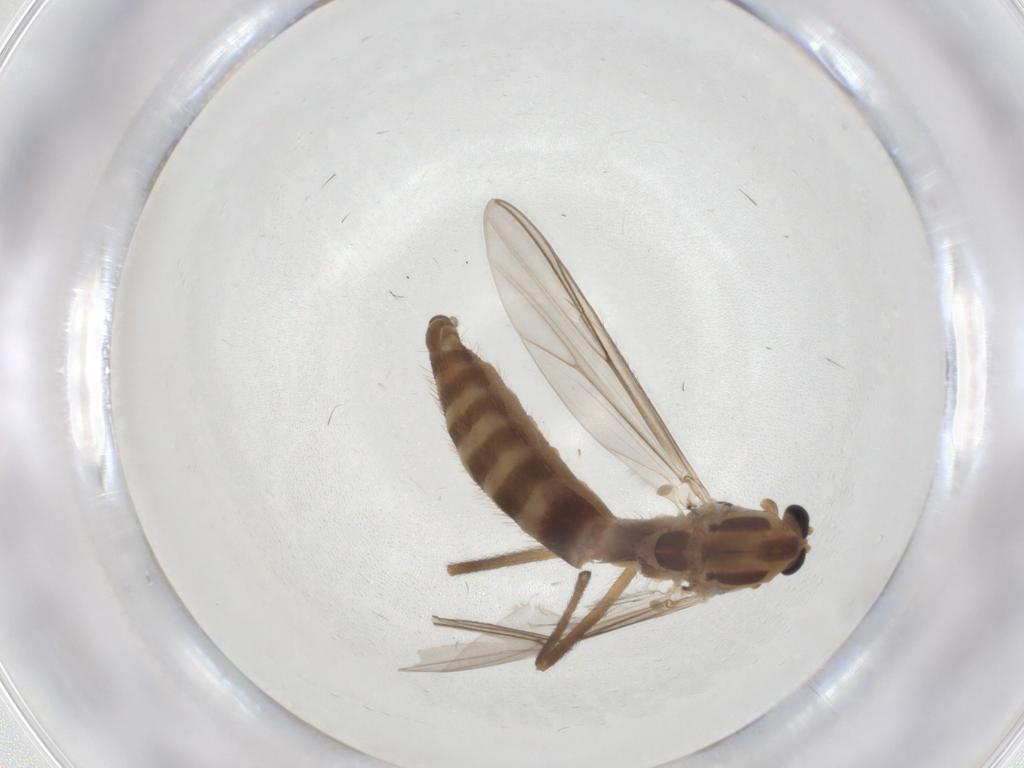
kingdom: Animalia
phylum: Arthropoda
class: Insecta
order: Diptera
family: Chironomidae
